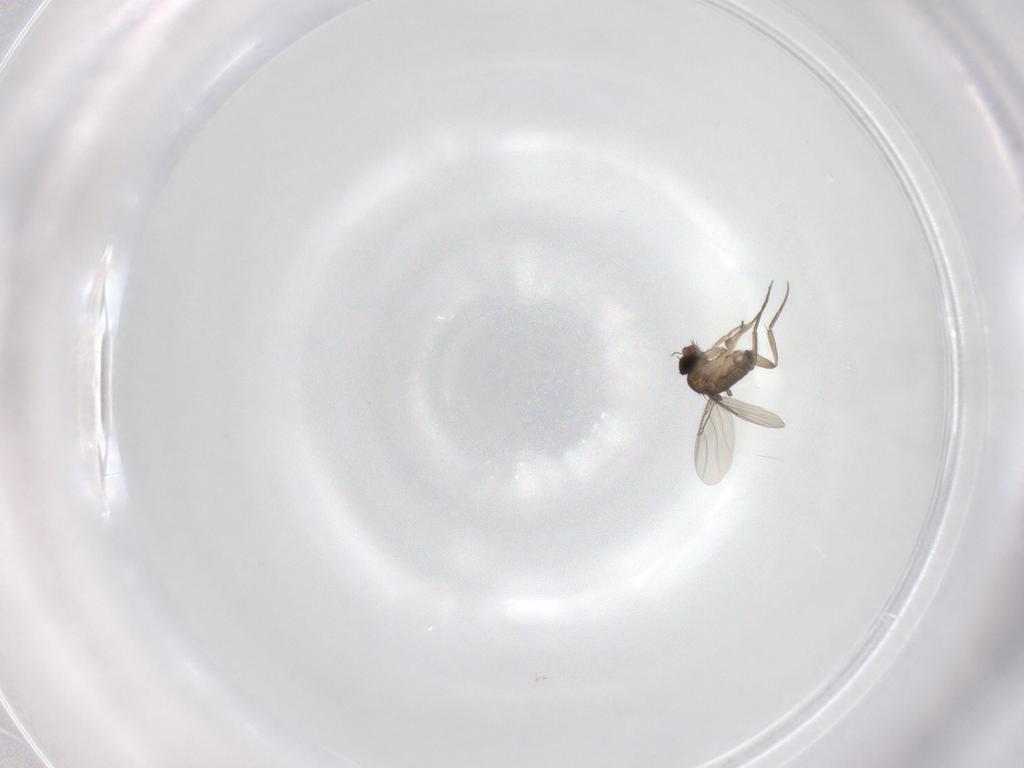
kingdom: Animalia
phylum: Arthropoda
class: Insecta
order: Diptera
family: Phoridae
